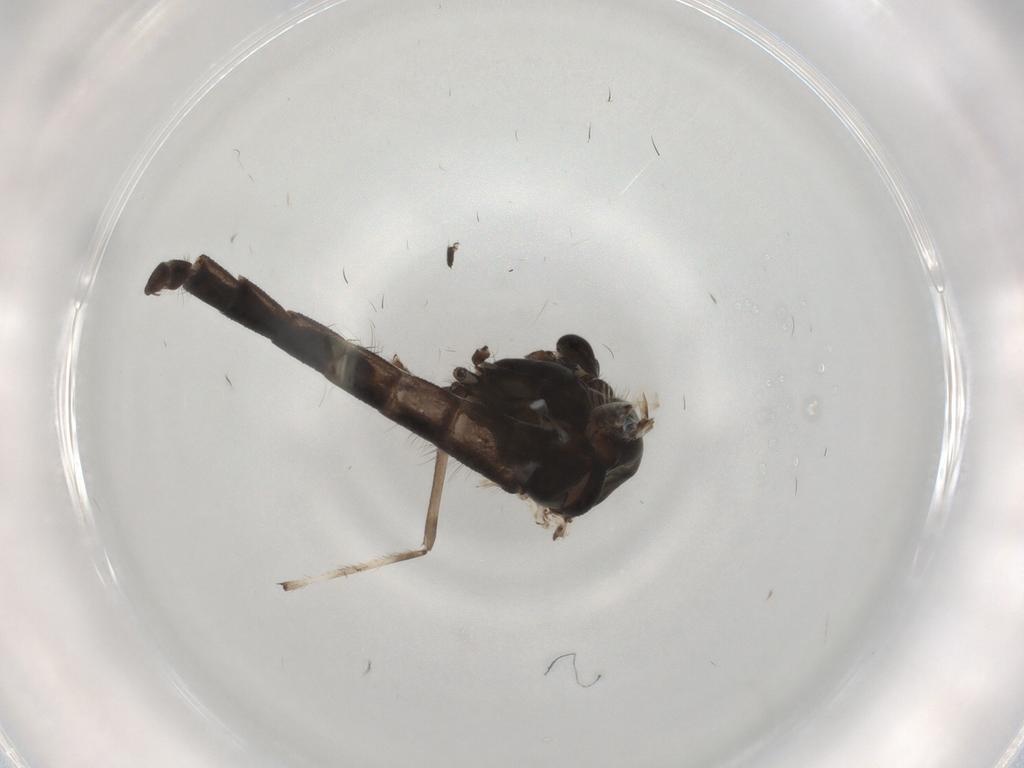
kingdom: Animalia
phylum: Arthropoda
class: Insecta
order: Diptera
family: Chironomidae
